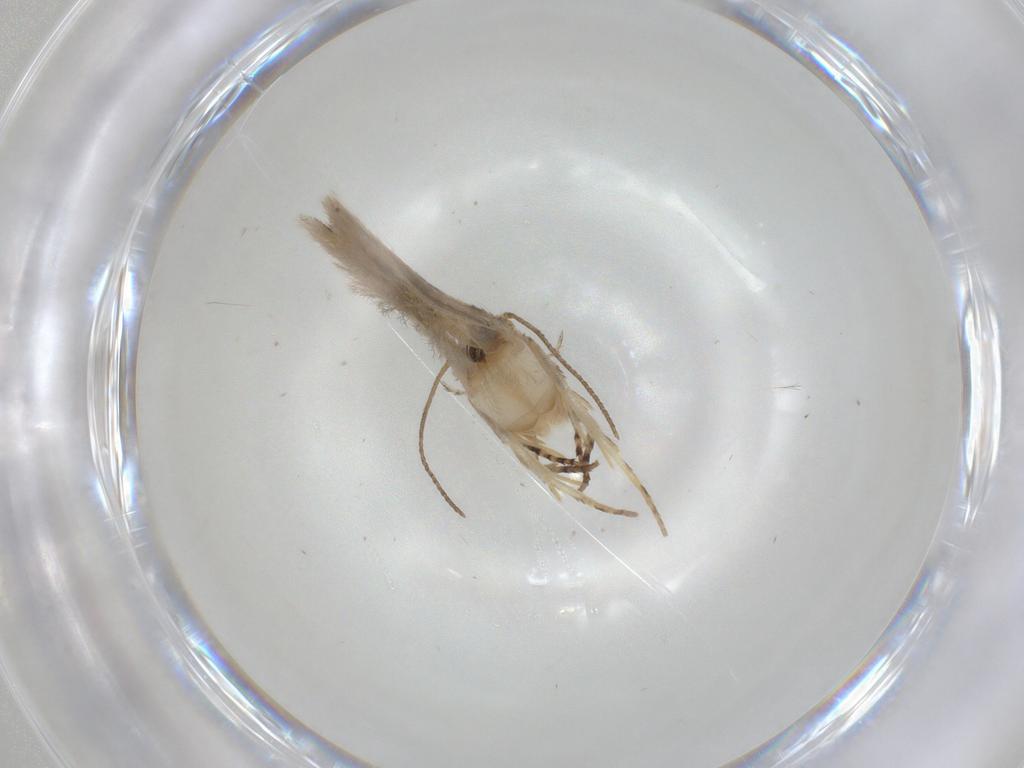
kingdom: Animalia
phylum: Arthropoda
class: Insecta
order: Lepidoptera
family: Gelechiidae
